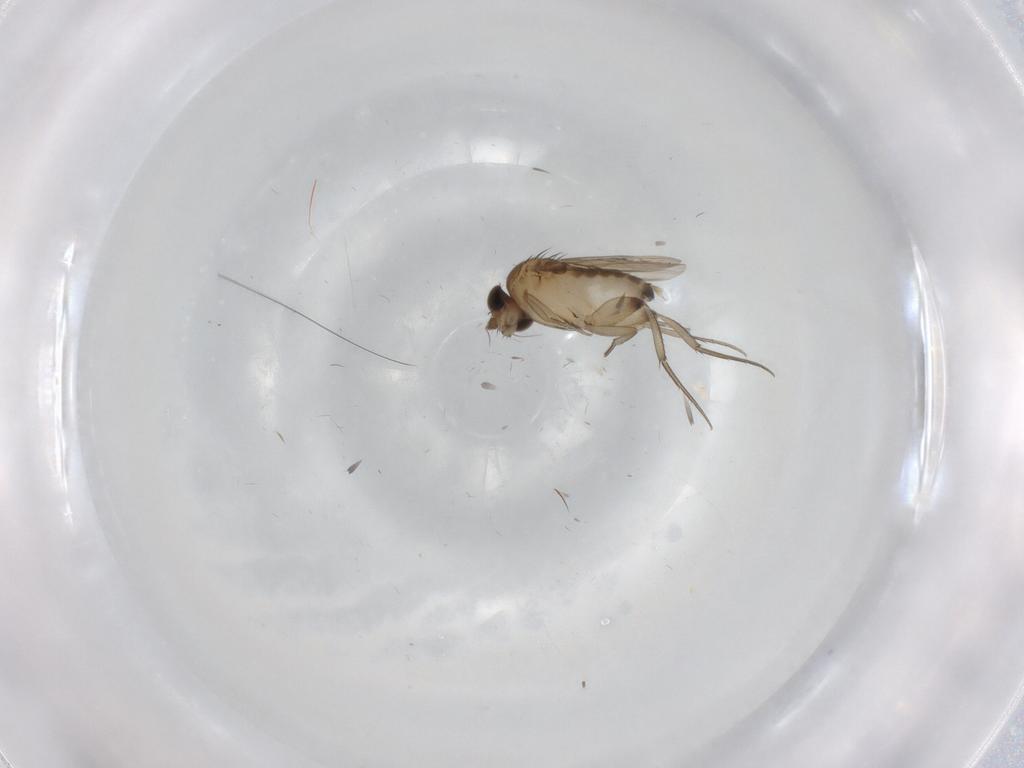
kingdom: Animalia
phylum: Arthropoda
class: Insecta
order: Diptera
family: Phoridae
